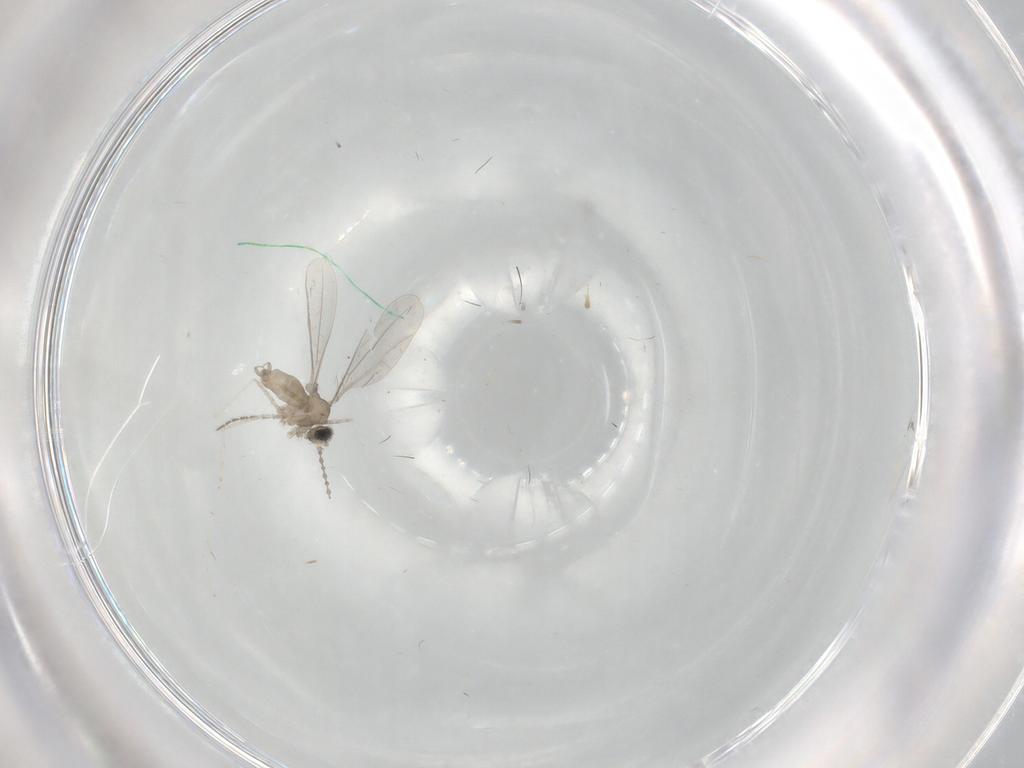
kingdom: Animalia
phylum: Arthropoda
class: Insecta
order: Diptera
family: Cecidomyiidae
